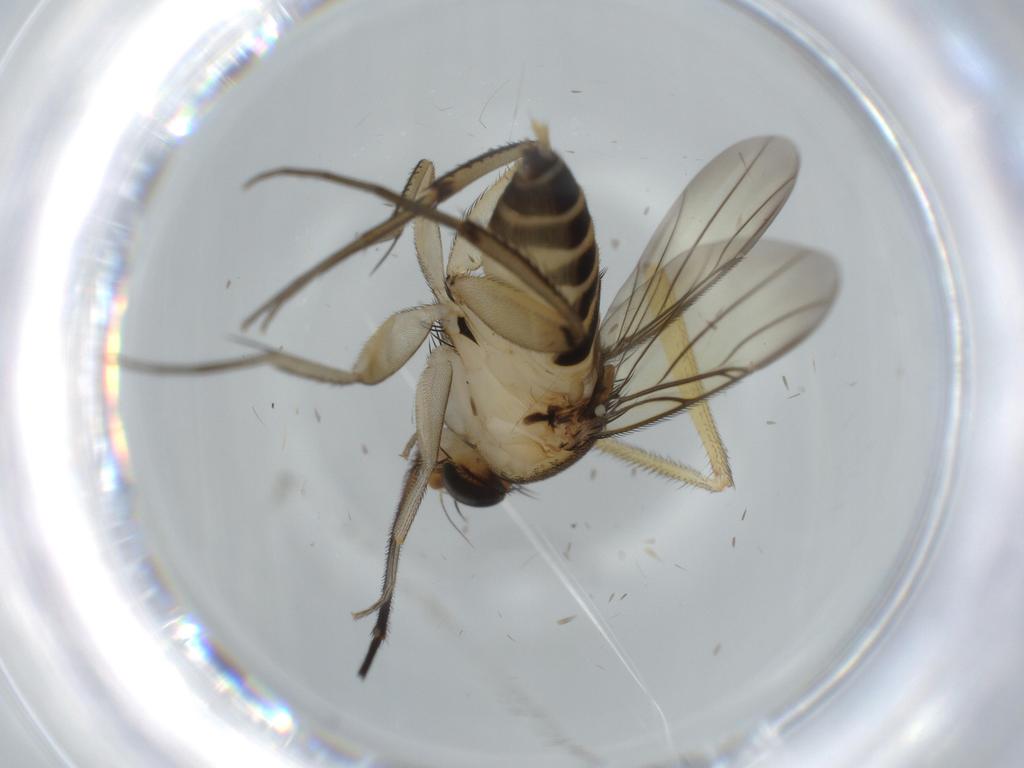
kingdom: Animalia
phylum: Arthropoda
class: Insecta
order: Diptera
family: Phoridae
